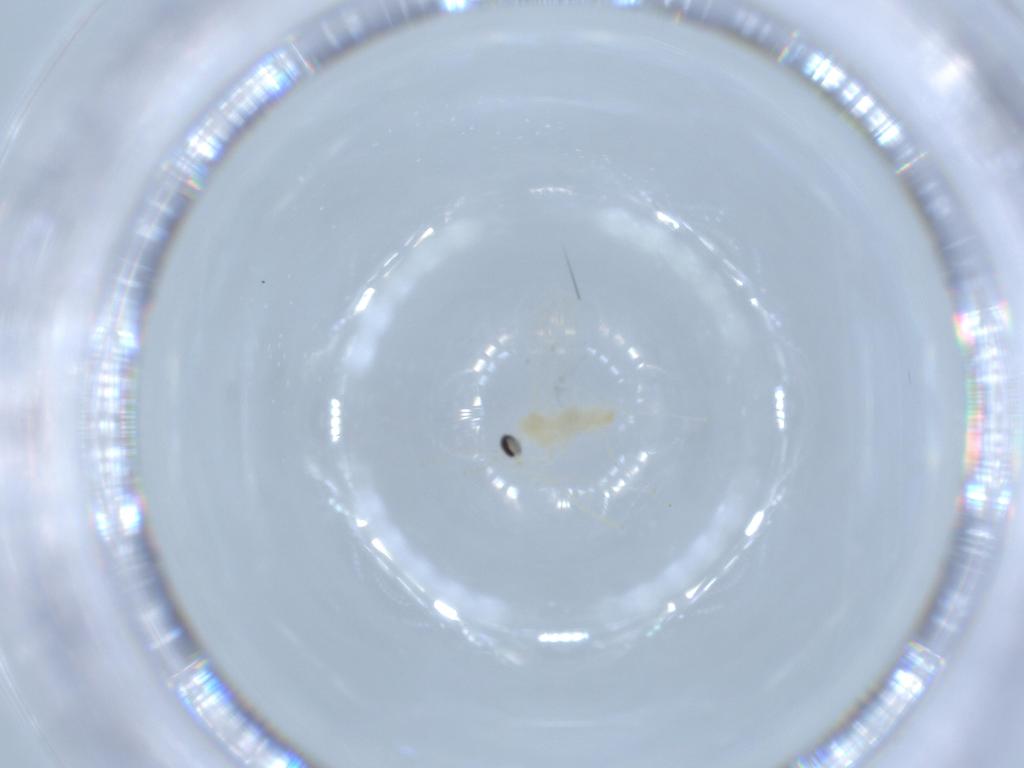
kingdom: Animalia
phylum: Arthropoda
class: Insecta
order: Diptera
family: Cecidomyiidae
